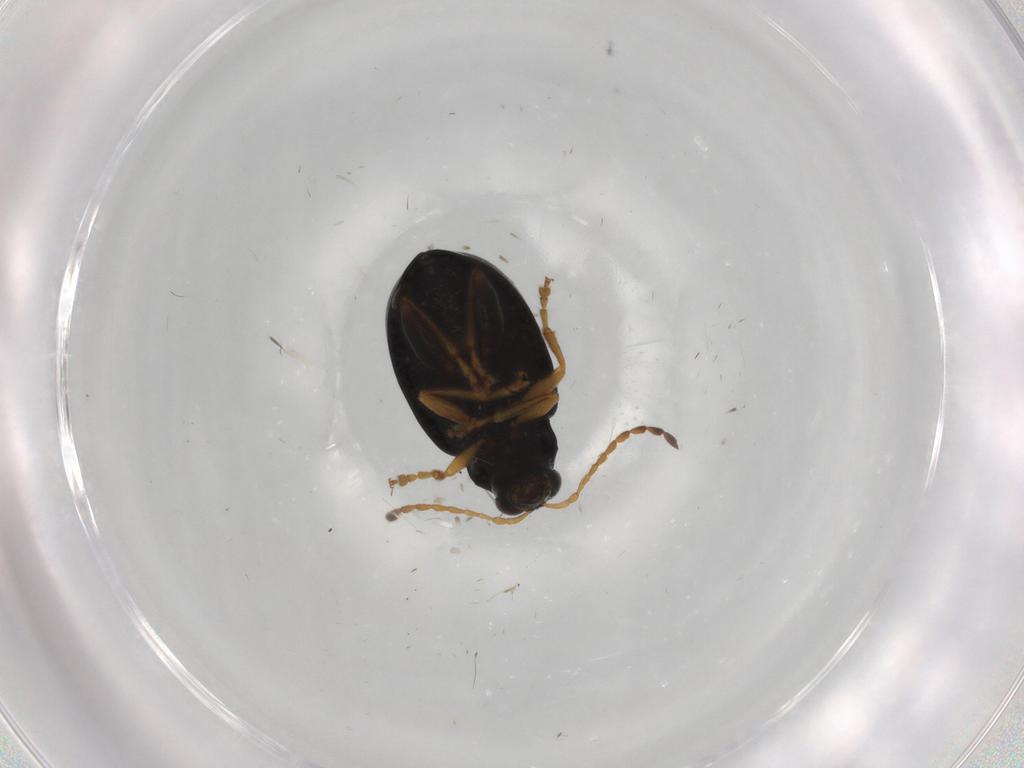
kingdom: Animalia
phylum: Arthropoda
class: Insecta
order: Coleoptera
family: Chrysomelidae
